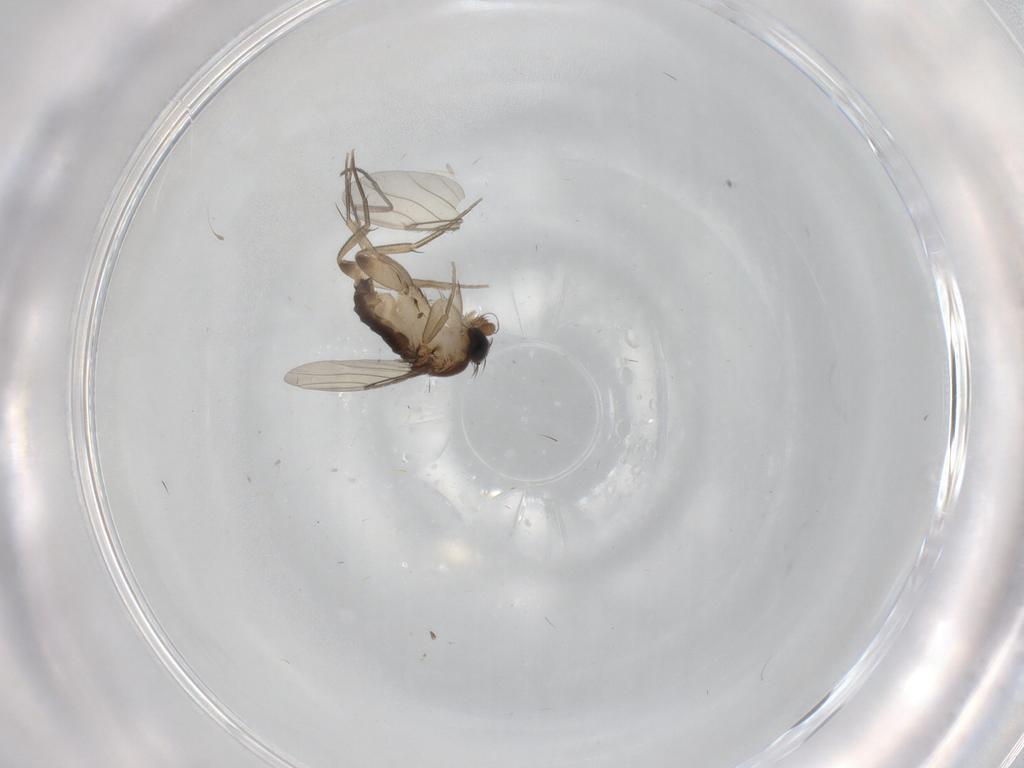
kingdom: Animalia
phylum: Arthropoda
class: Insecta
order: Diptera
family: Phoridae
